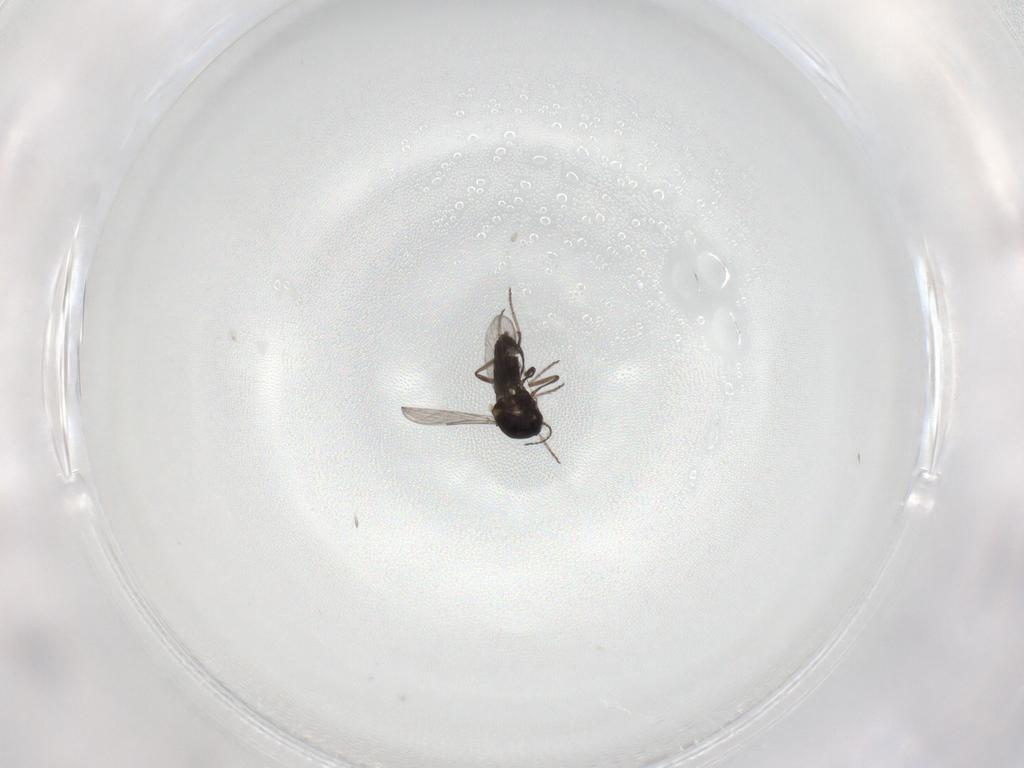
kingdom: Animalia
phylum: Arthropoda
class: Insecta
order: Diptera
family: Ceratopogonidae
